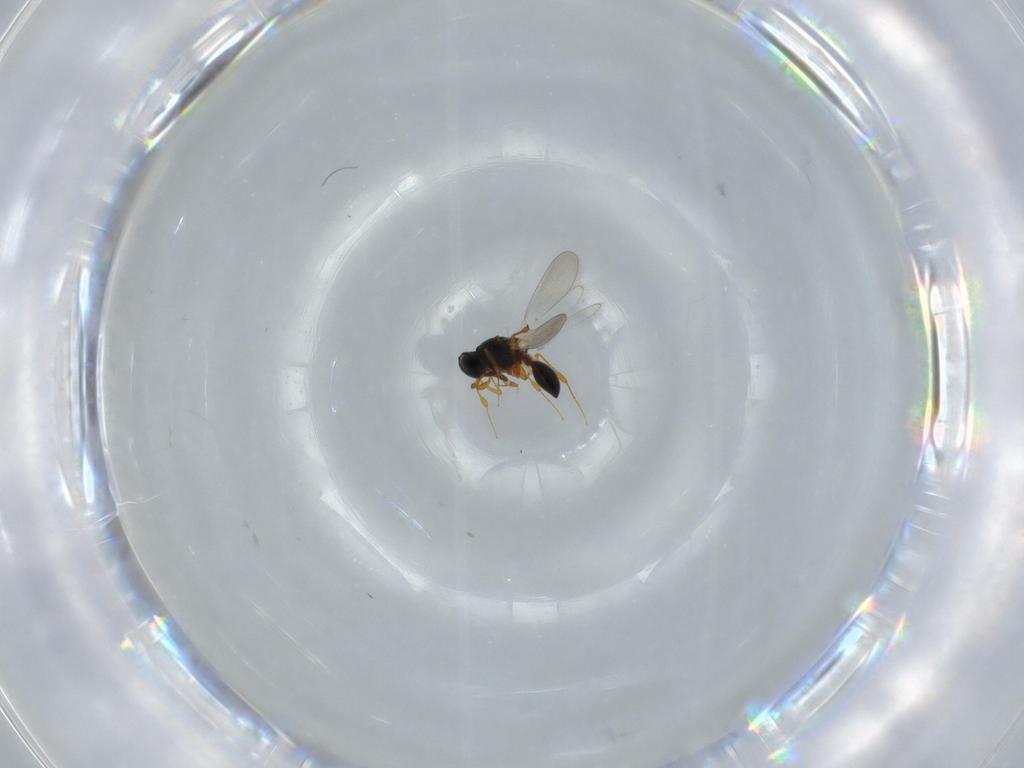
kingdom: Animalia
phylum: Arthropoda
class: Insecta
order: Hymenoptera
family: Platygastridae
